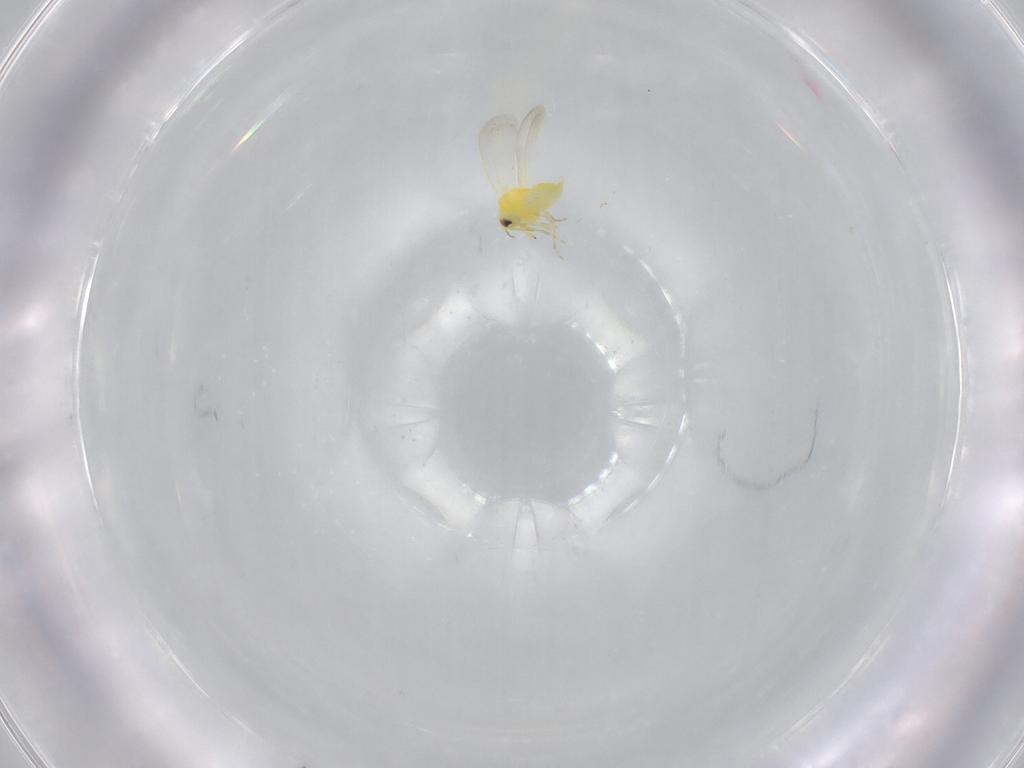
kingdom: Animalia
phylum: Arthropoda
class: Insecta
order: Hemiptera
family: Aleyrodidae
